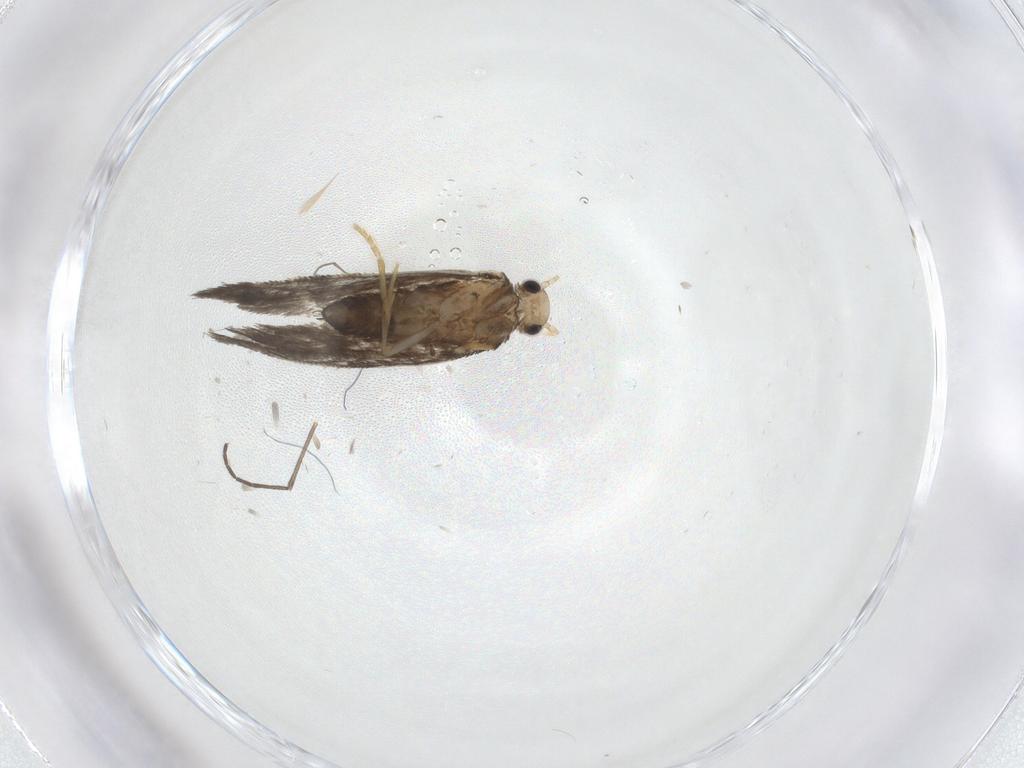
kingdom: Animalia
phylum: Arthropoda
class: Insecta
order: Lepidoptera
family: Psychidae
